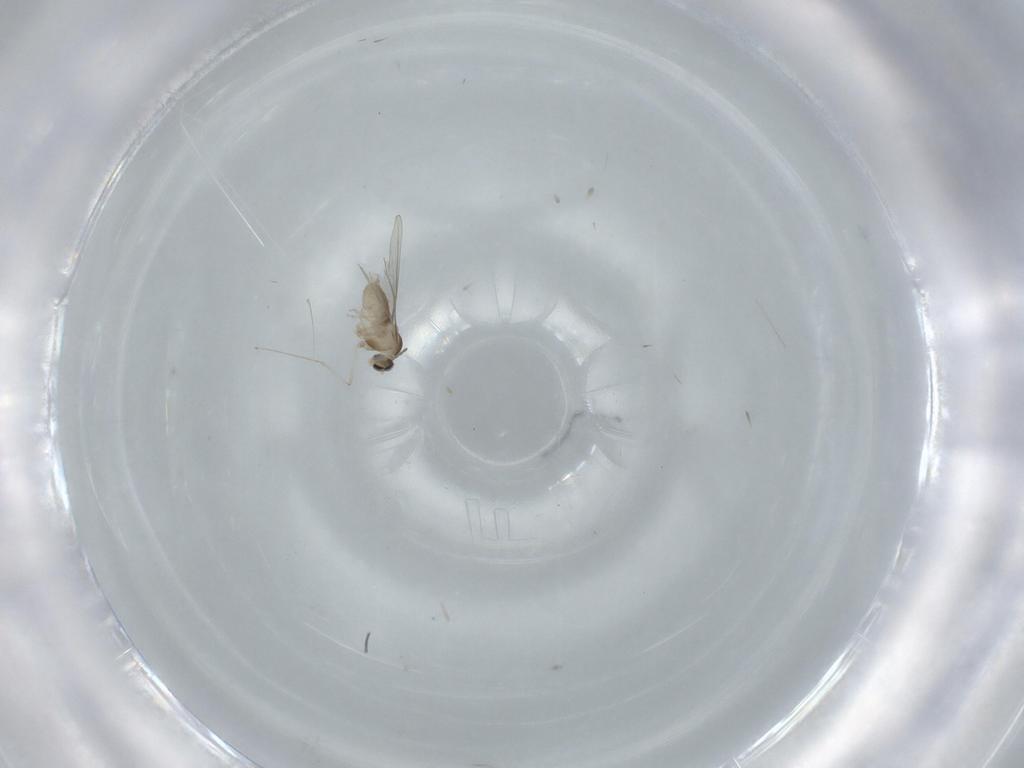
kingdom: Animalia
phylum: Arthropoda
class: Insecta
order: Diptera
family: Cecidomyiidae
